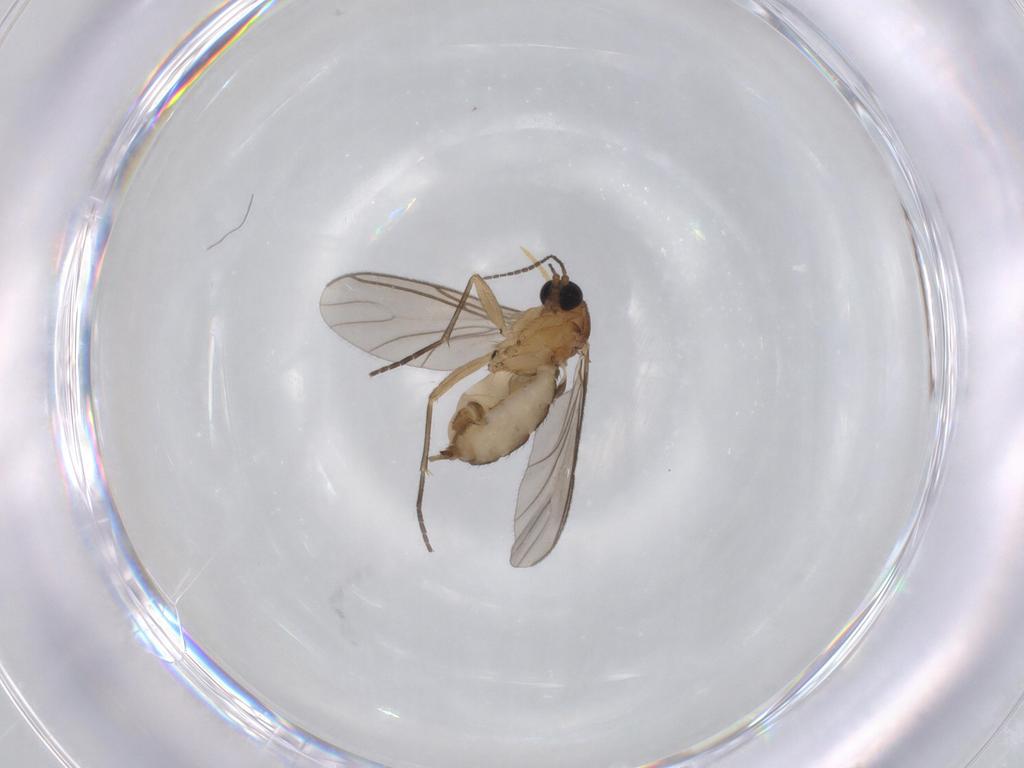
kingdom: Animalia
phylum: Arthropoda
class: Insecta
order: Diptera
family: Sciaridae
